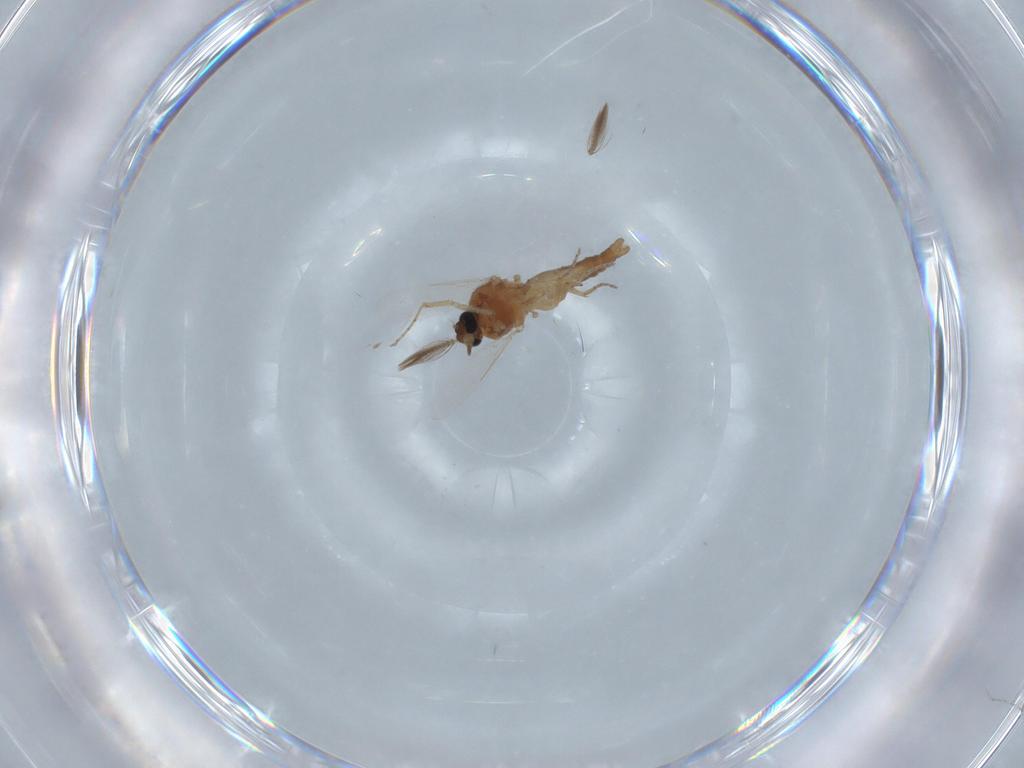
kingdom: Animalia
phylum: Arthropoda
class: Insecta
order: Diptera
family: Ceratopogonidae
